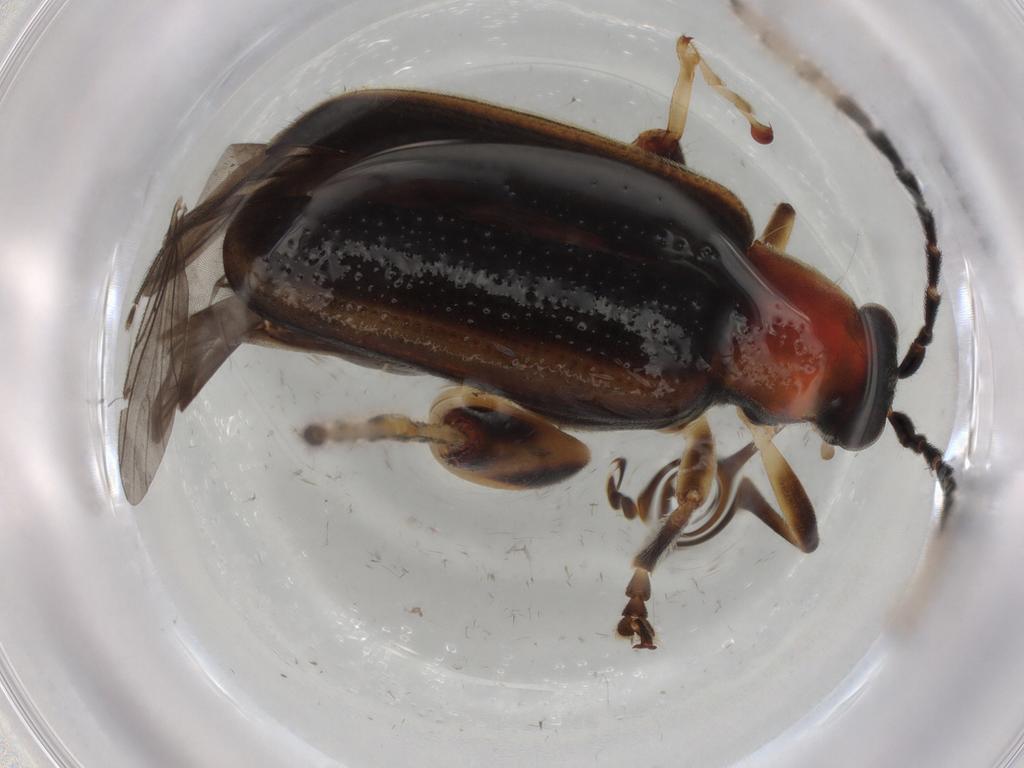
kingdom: Animalia
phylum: Arthropoda
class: Insecta
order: Coleoptera
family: Chrysomelidae
